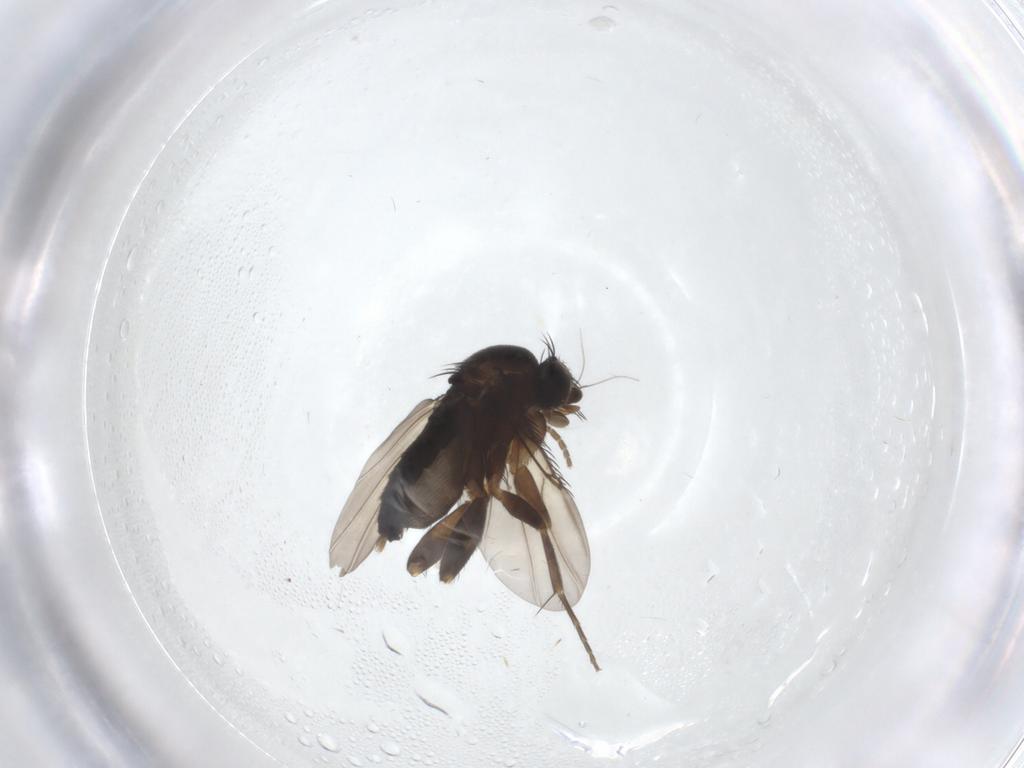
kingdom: Animalia
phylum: Arthropoda
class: Insecta
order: Diptera
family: Phoridae
